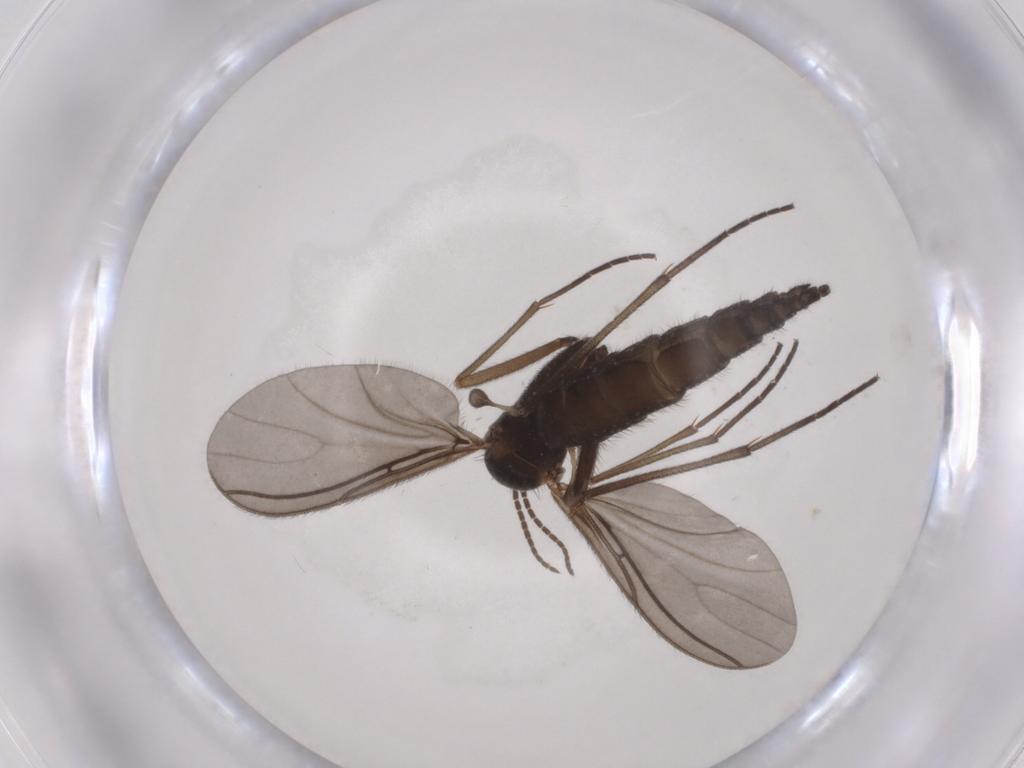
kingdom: Animalia
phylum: Arthropoda
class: Insecta
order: Diptera
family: Sciaridae
